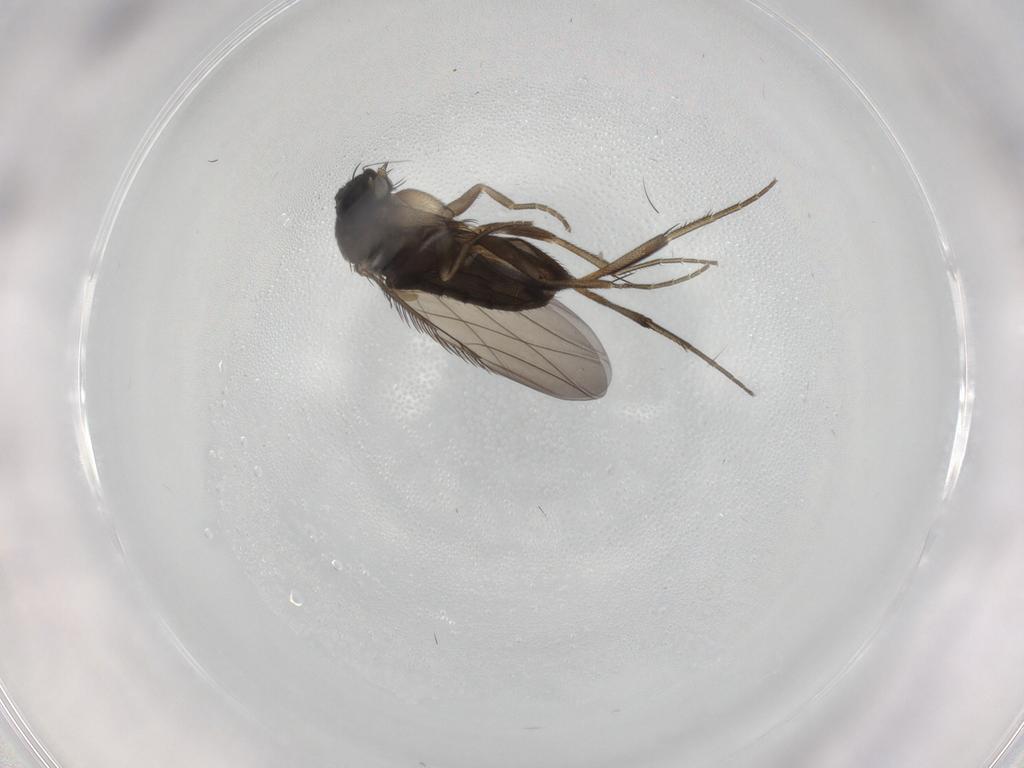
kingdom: Animalia
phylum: Arthropoda
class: Insecta
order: Diptera
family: Phoridae
